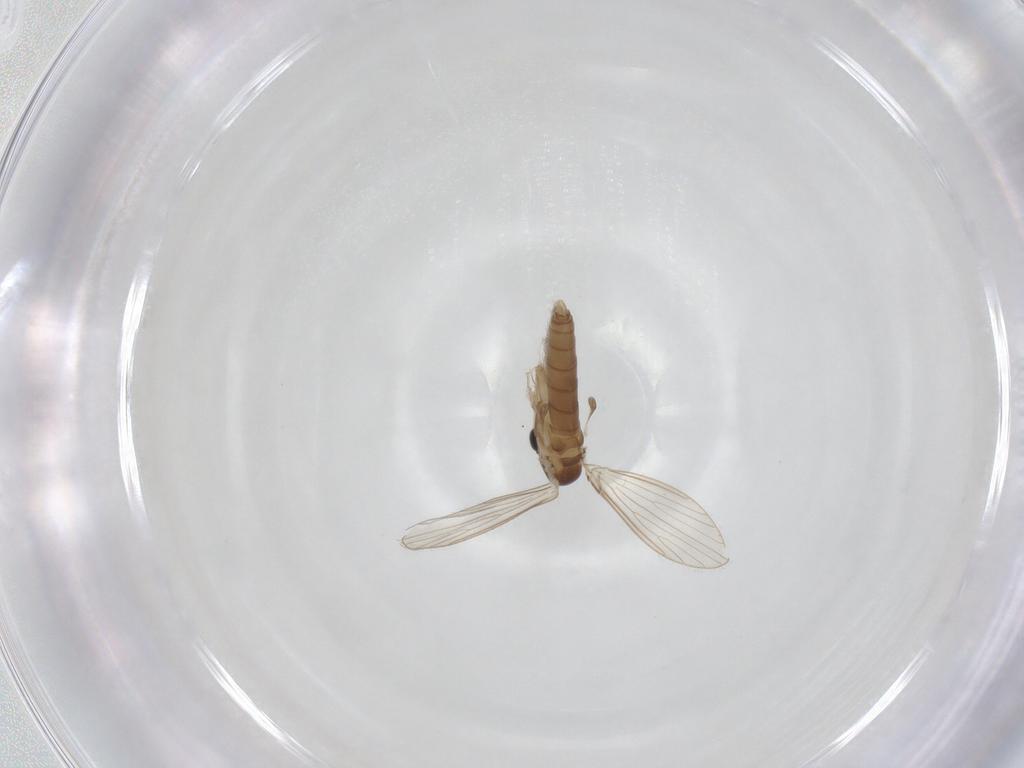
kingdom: Animalia
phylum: Arthropoda
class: Insecta
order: Diptera
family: Psychodidae
